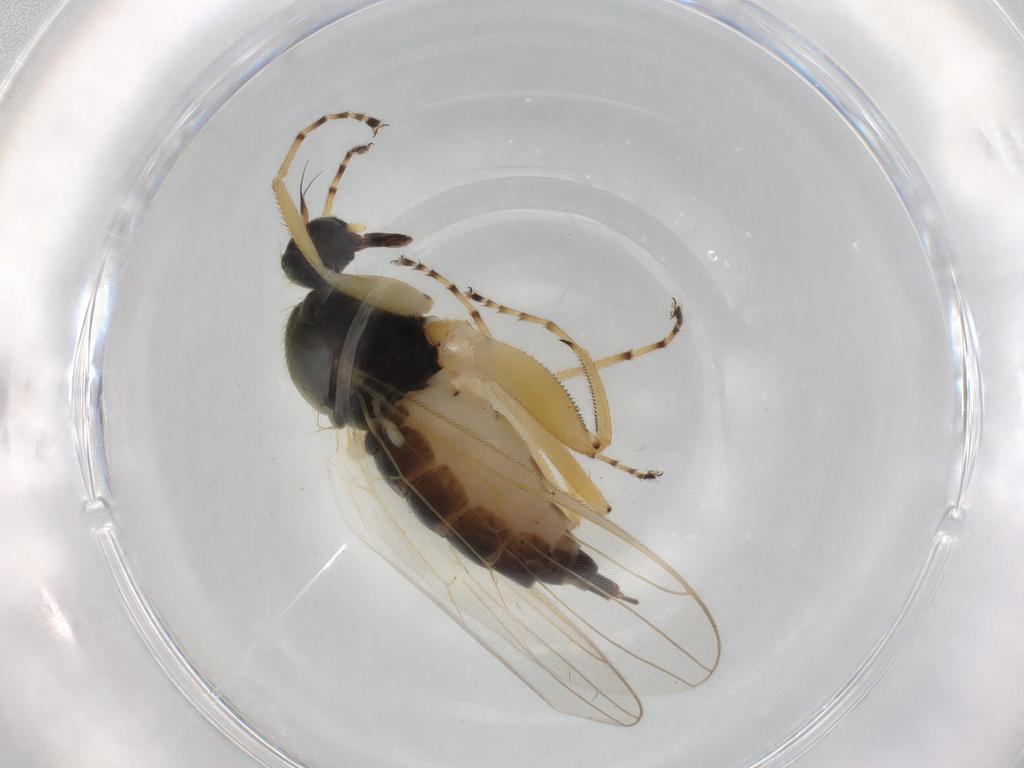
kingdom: Animalia
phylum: Arthropoda
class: Insecta
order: Diptera
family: Hybotidae
